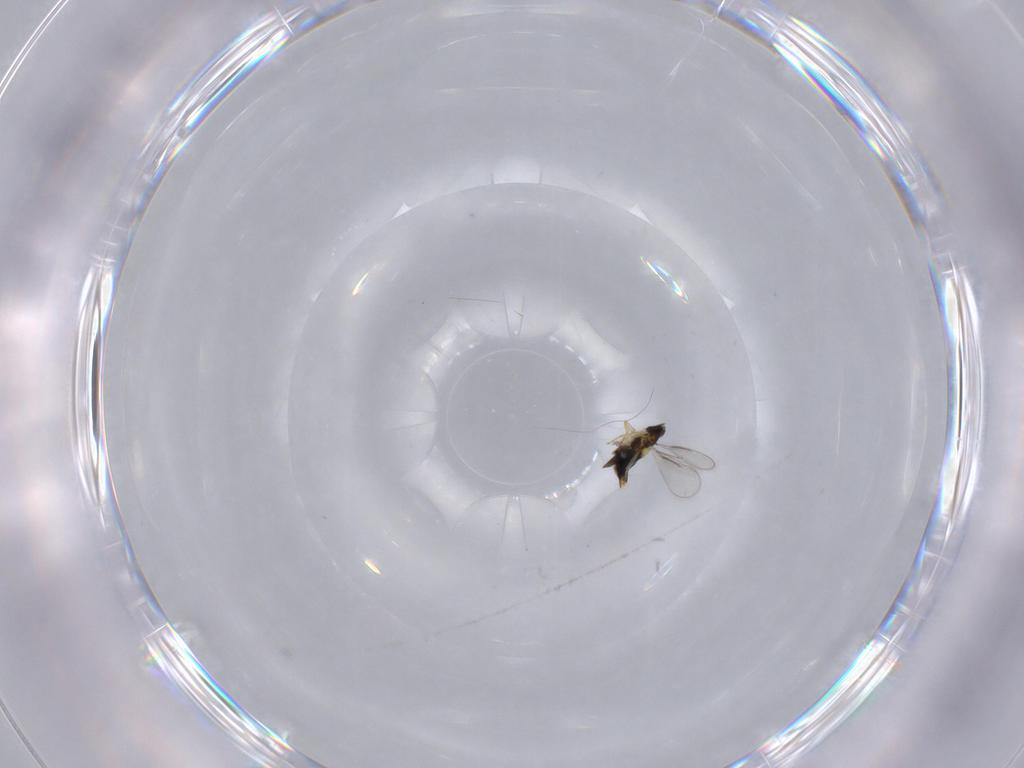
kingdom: Animalia
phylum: Arthropoda
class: Insecta
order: Hymenoptera
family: Aphelinidae
